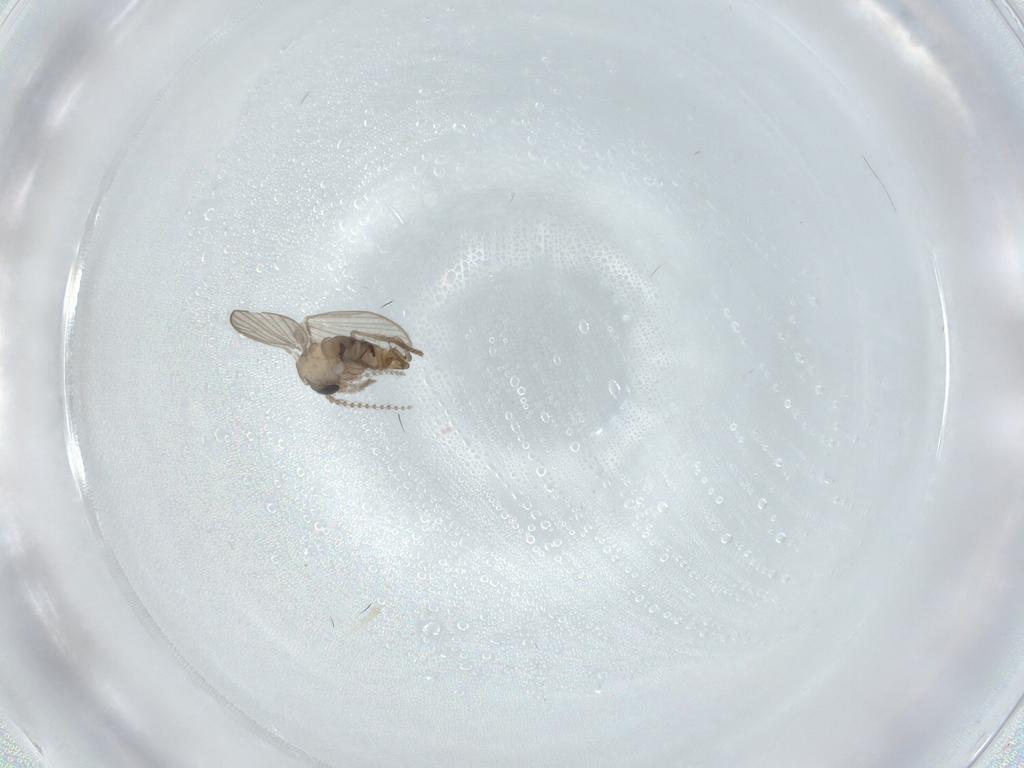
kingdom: Animalia
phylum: Arthropoda
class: Insecta
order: Diptera
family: Psychodidae
